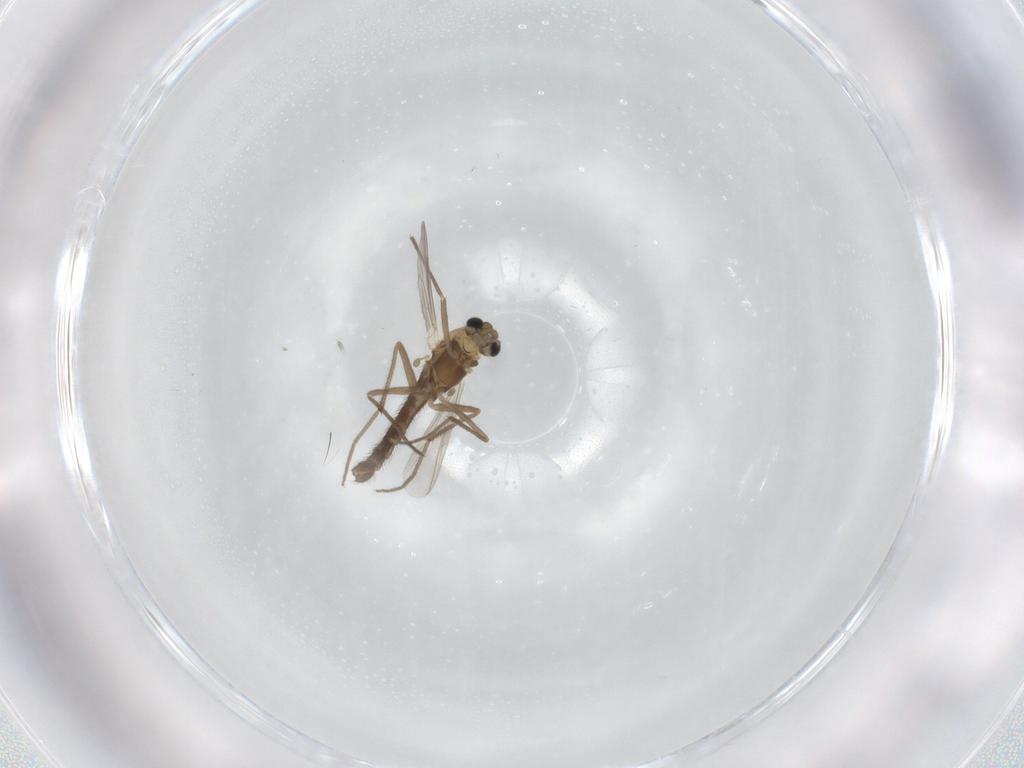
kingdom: Animalia
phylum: Arthropoda
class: Insecta
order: Diptera
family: Chironomidae
